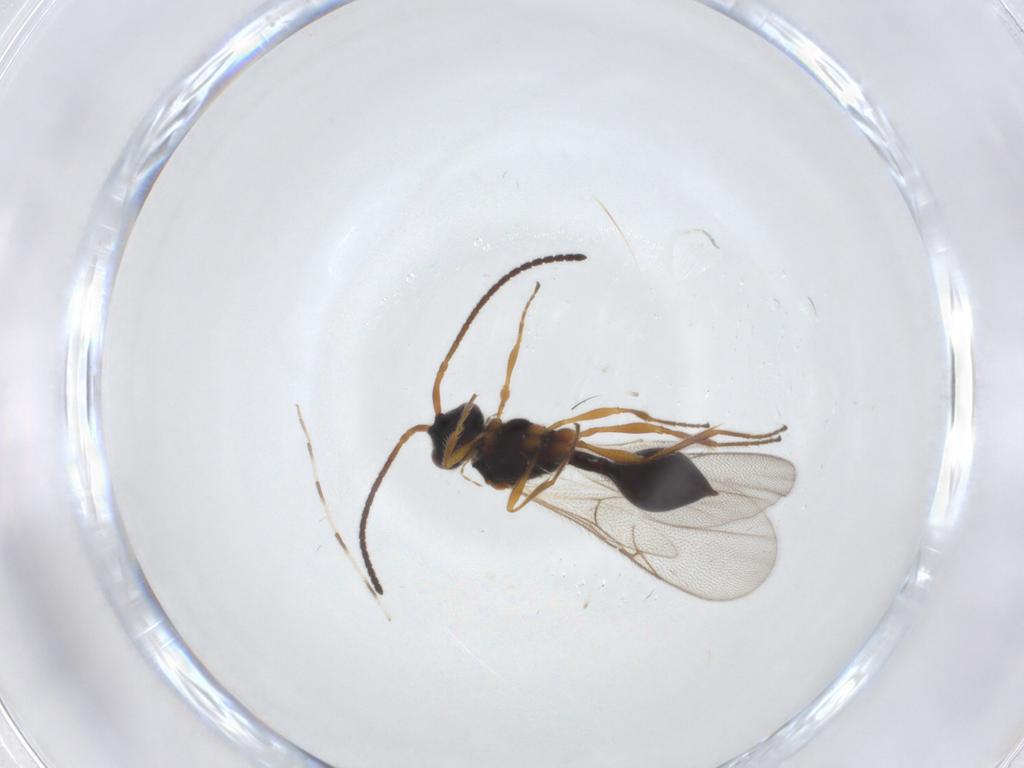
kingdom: Animalia
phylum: Arthropoda
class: Insecta
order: Hymenoptera
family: Diapriidae
